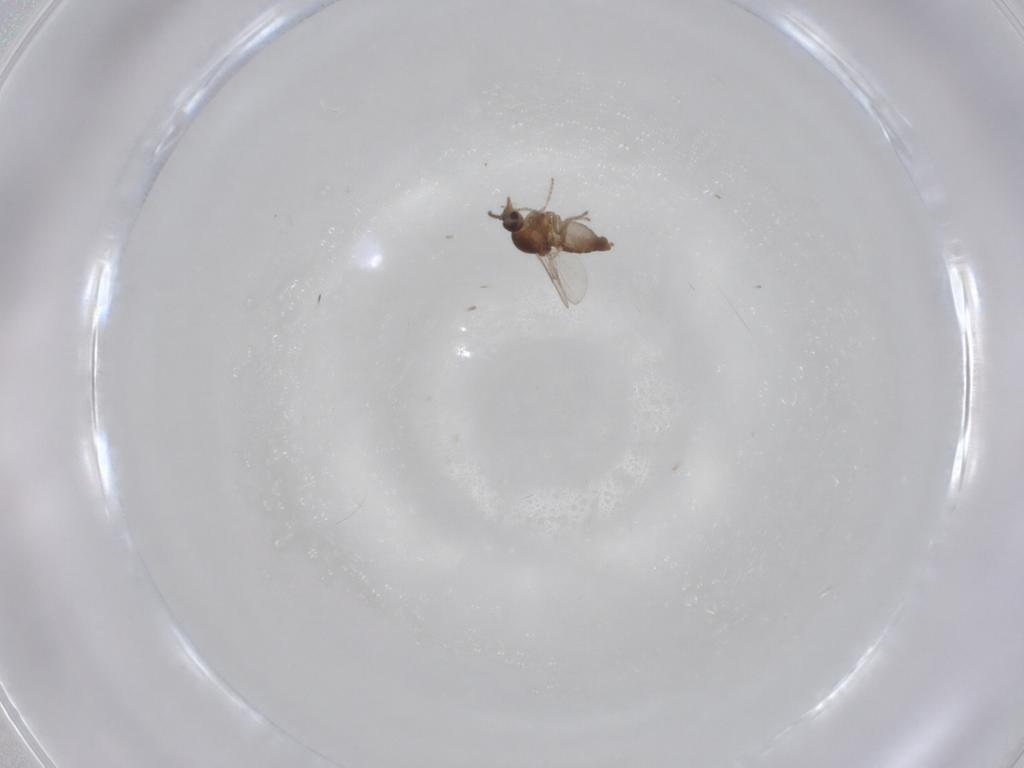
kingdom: Animalia
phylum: Arthropoda
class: Insecta
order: Diptera
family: Ceratopogonidae
